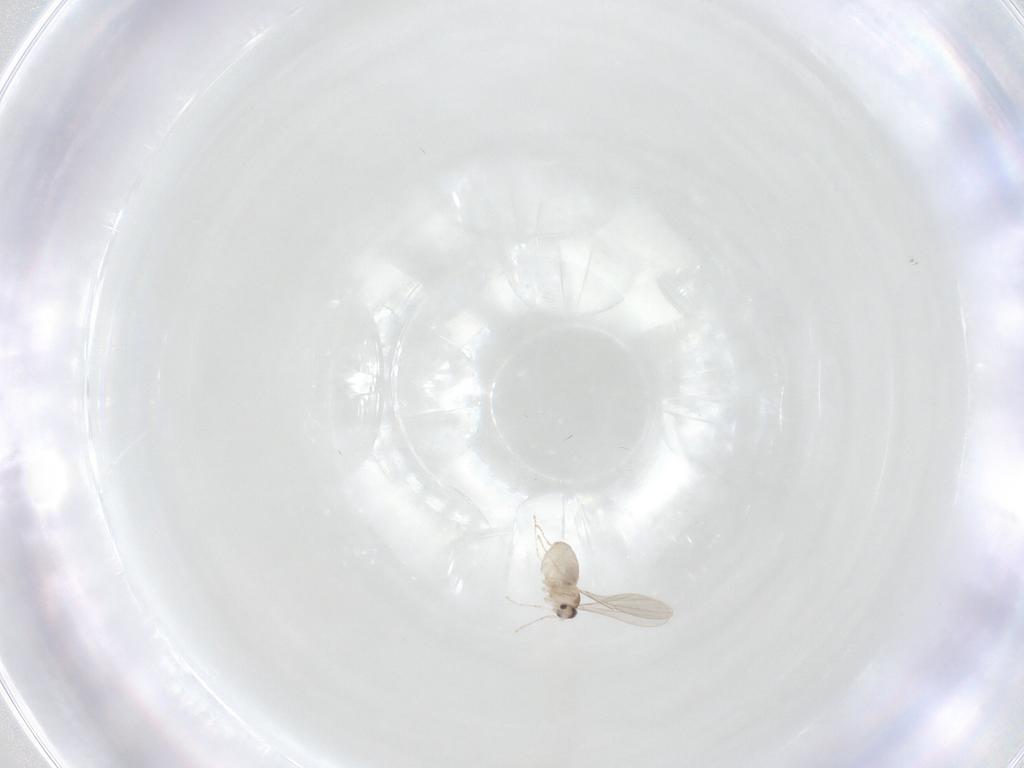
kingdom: Animalia
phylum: Arthropoda
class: Insecta
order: Diptera
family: Cecidomyiidae
